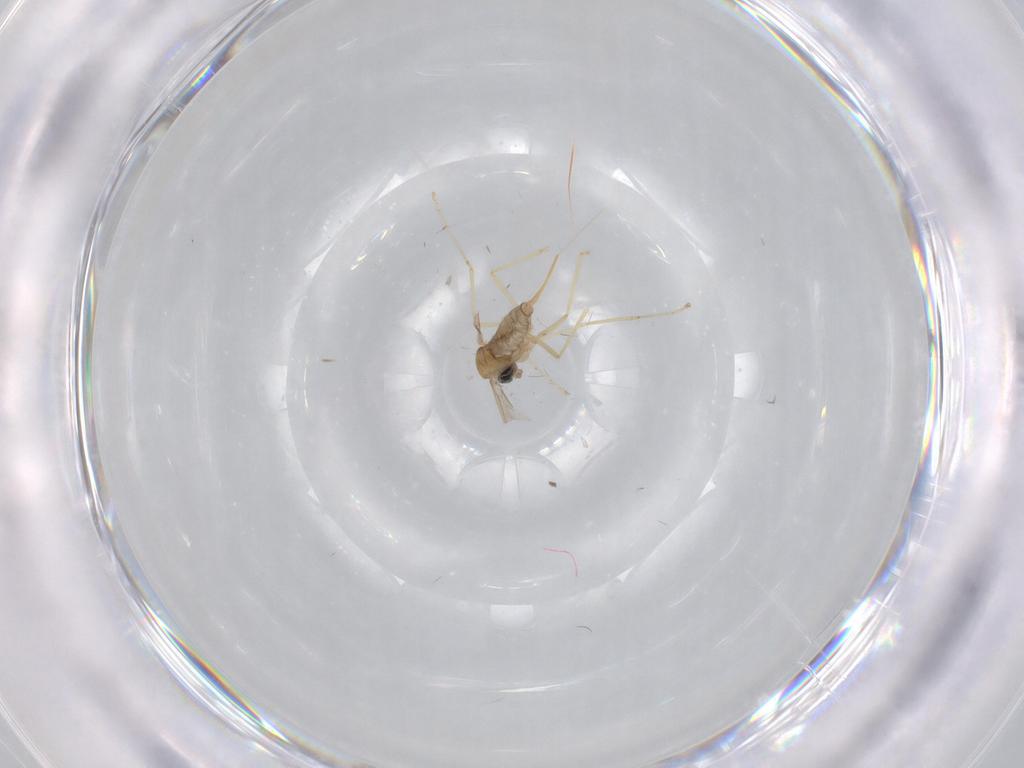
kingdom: Animalia
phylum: Arthropoda
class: Insecta
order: Diptera
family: Cecidomyiidae
